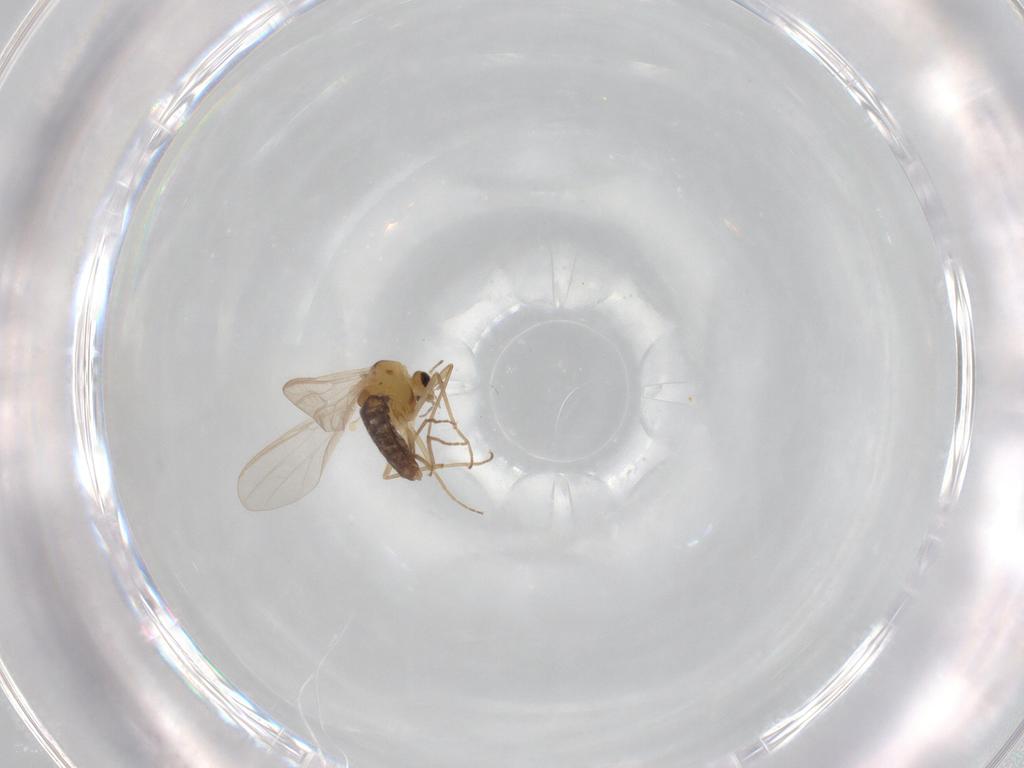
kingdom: Animalia
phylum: Arthropoda
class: Insecta
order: Diptera
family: Chironomidae
